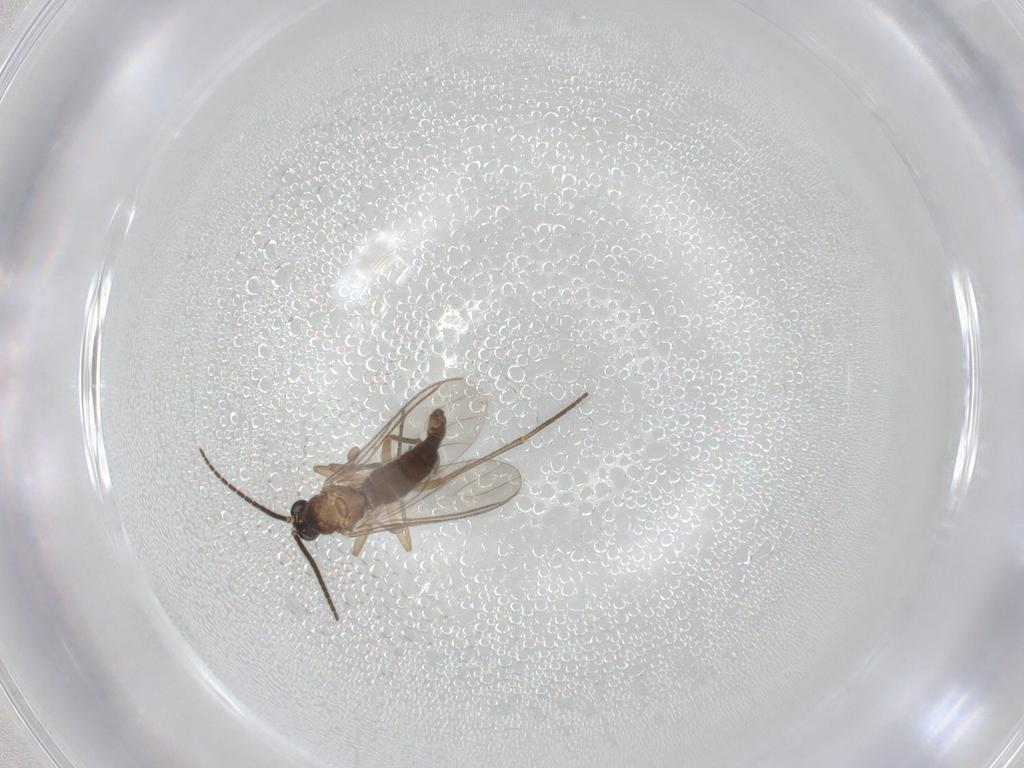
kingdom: Animalia
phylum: Arthropoda
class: Insecta
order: Diptera
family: Sciaridae
